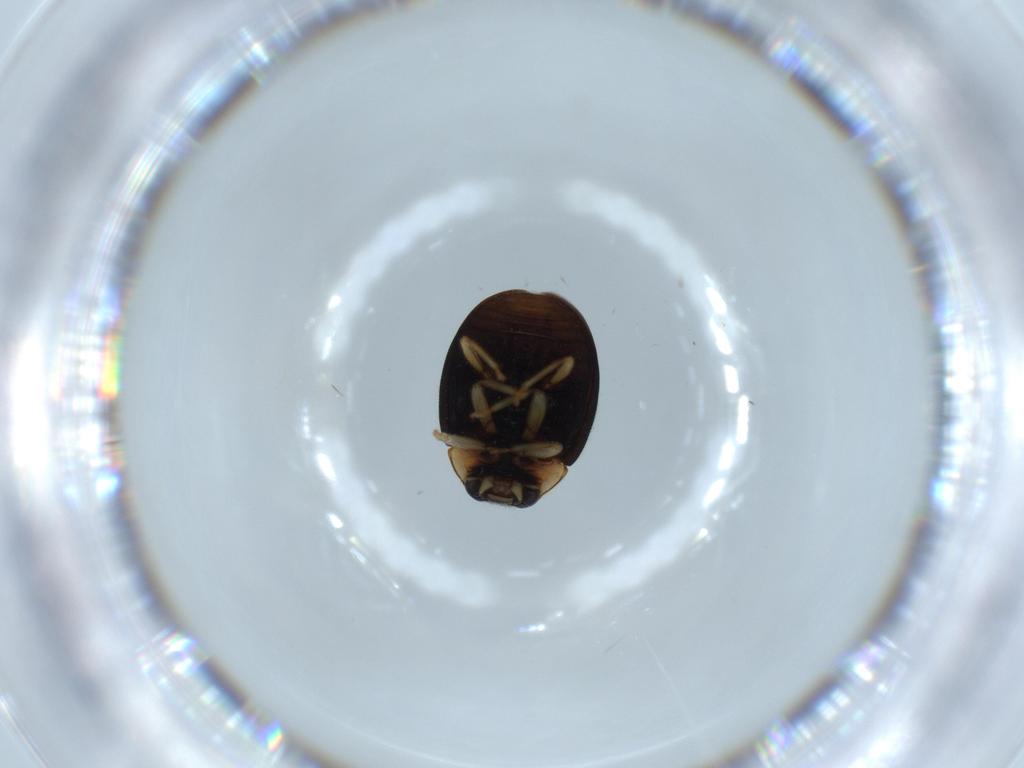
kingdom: Animalia
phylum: Arthropoda
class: Insecta
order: Coleoptera
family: Coccinellidae
